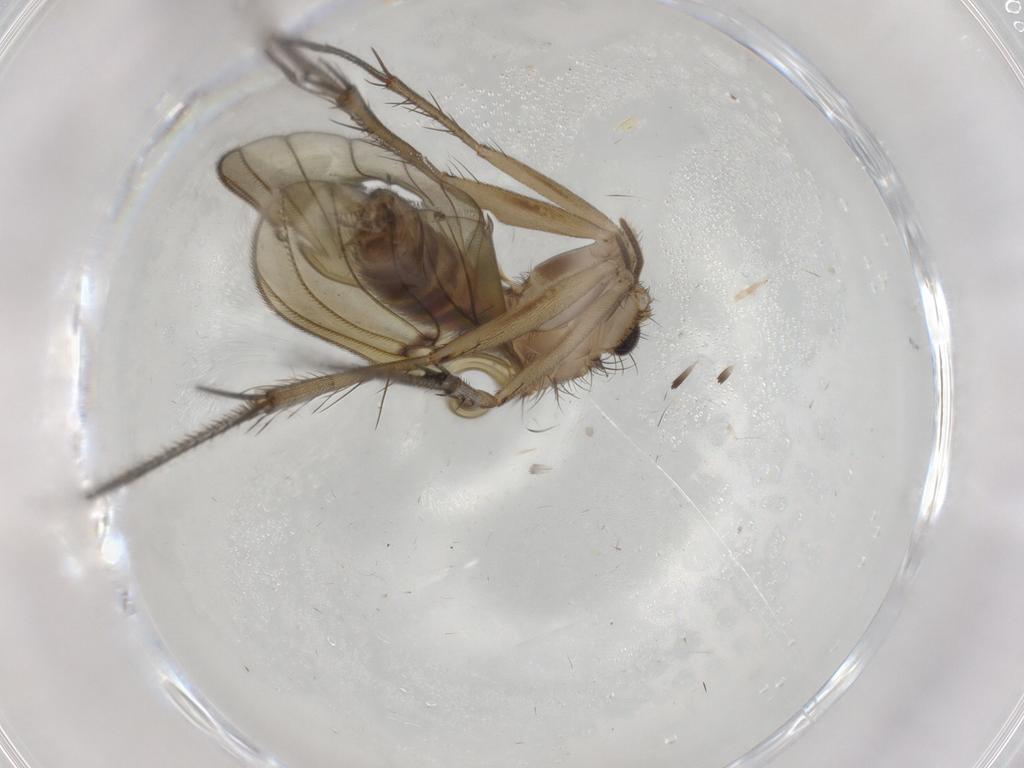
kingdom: Animalia
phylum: Arthropoda
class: Insecta
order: Diptera
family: Mycetophilidae
